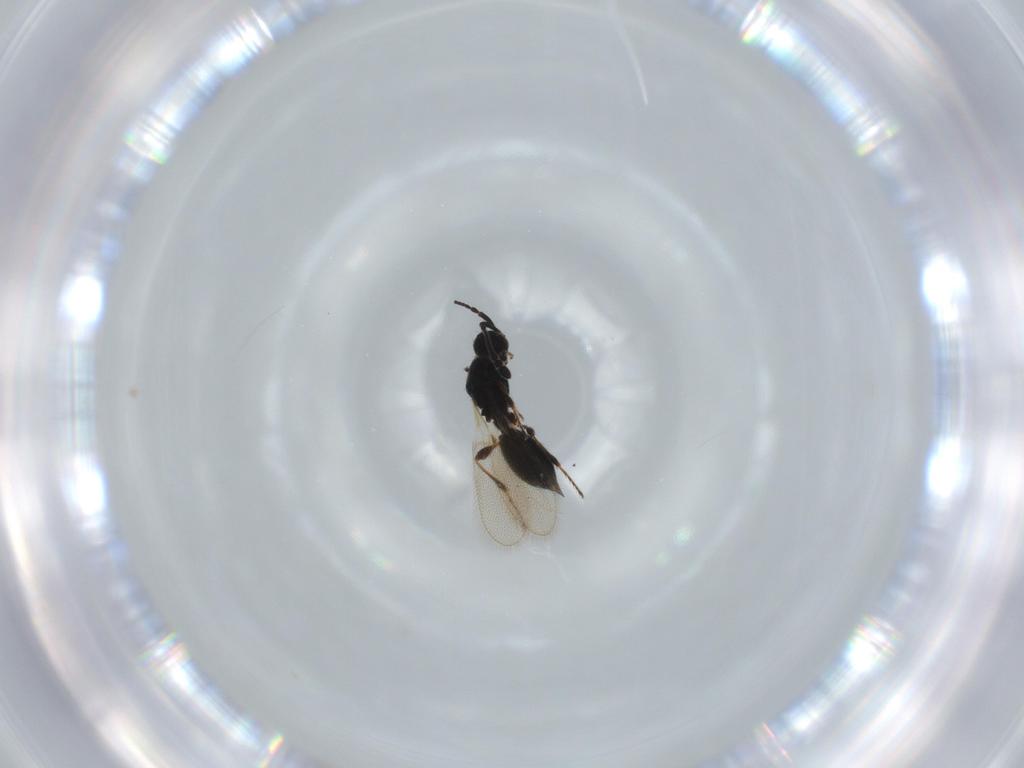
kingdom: Animalia
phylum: Arthropoda
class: Insecta
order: Hymenoptera
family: Diapriidae
